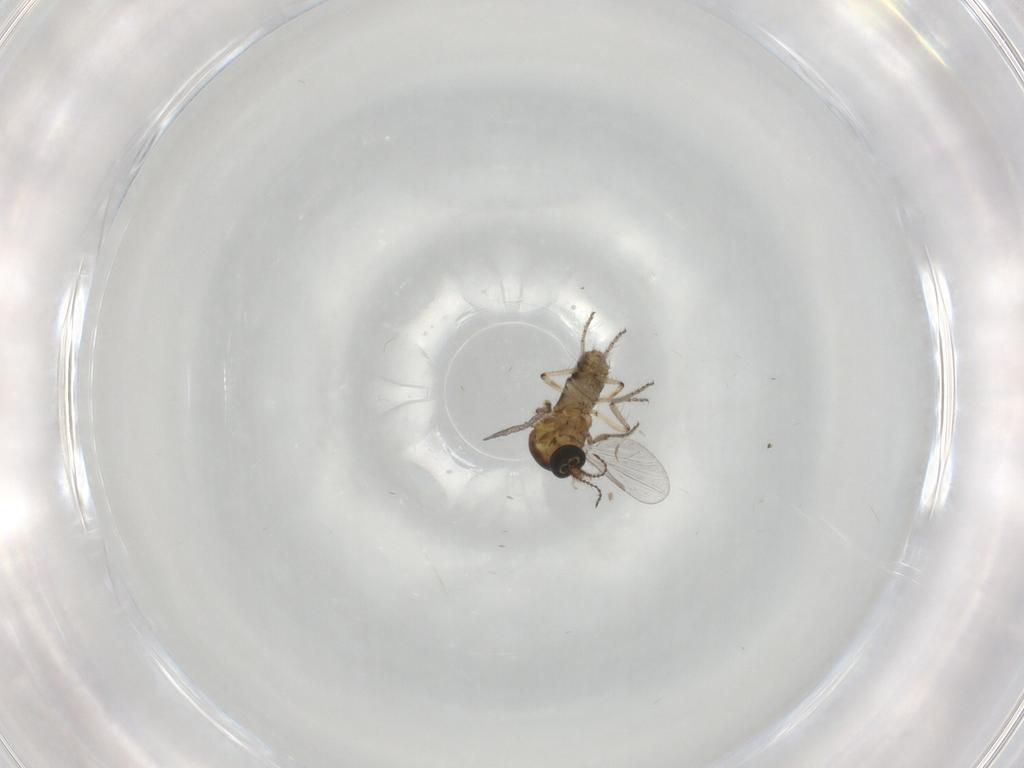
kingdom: Animalia
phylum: Arthropoda
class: Insecta
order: Diptera
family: Ceratopogonidae
